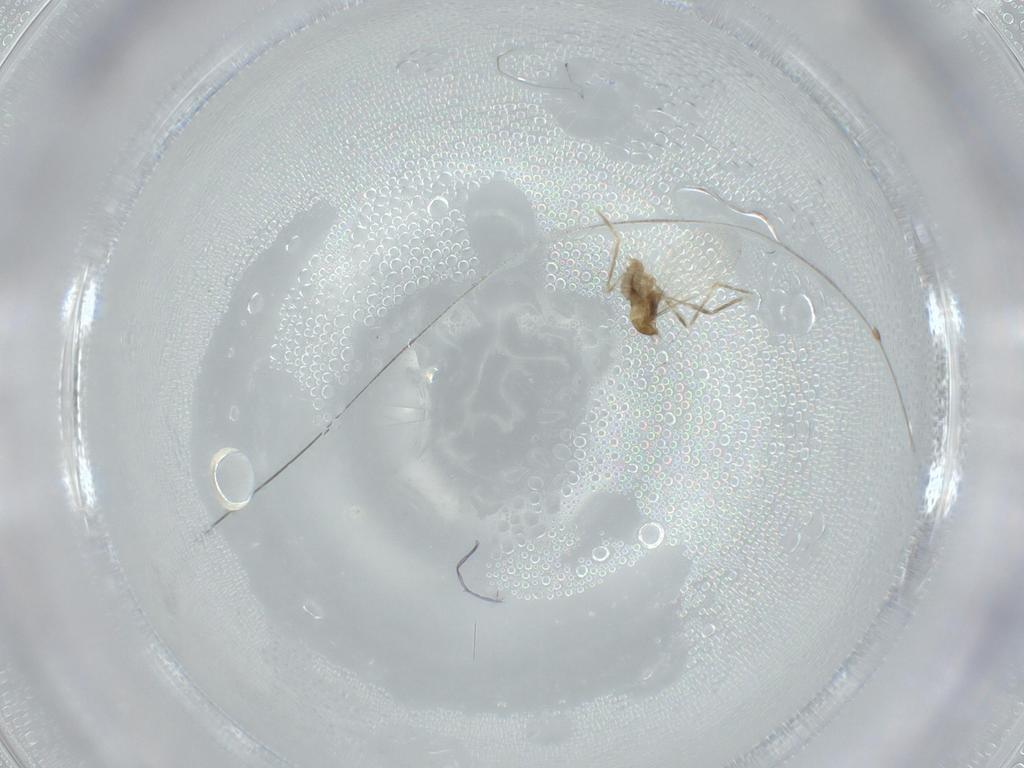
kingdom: Animalia
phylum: Arthropoda
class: Insecta
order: Diptera
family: Cecidomyiidae
